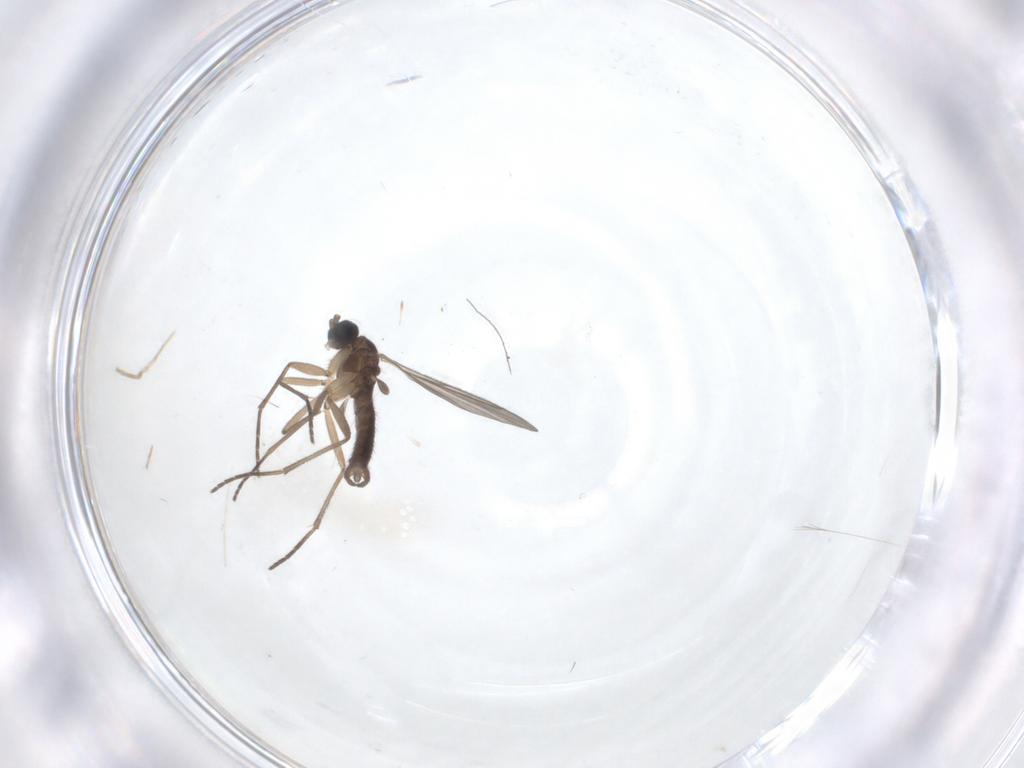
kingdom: Animalia
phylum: Arthropoda
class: Insecta
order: Diptera
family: Sciaridae
